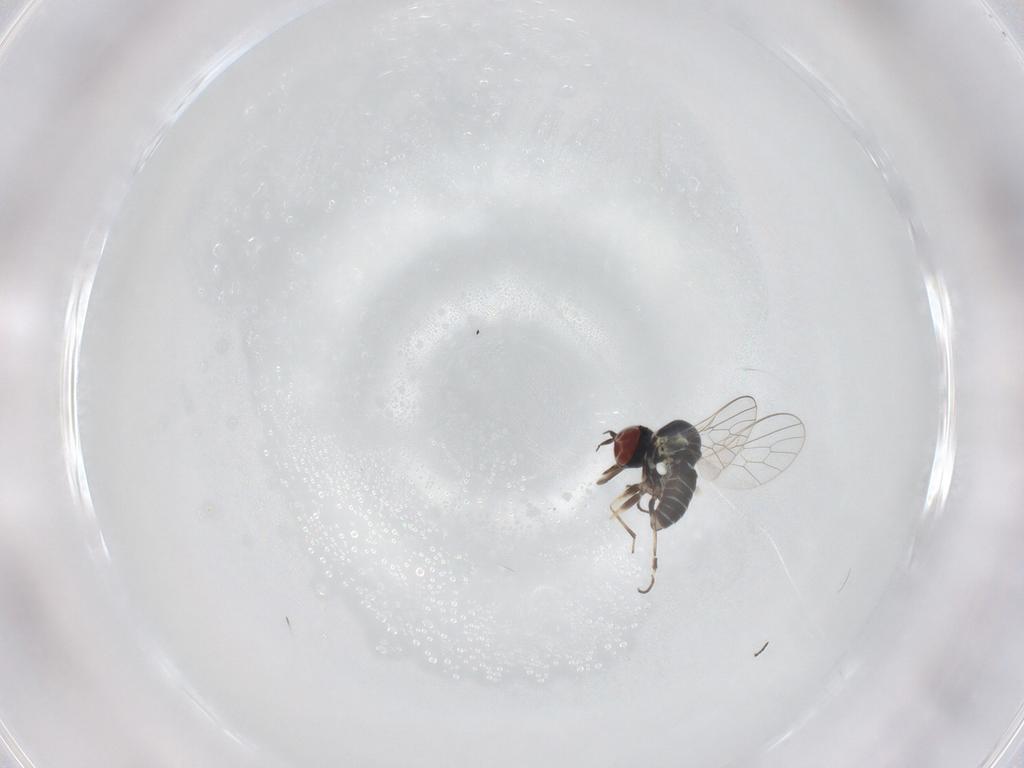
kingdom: Animalia
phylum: Arthropoda
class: Insecta
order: Diptera
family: Mythicomyiidae
